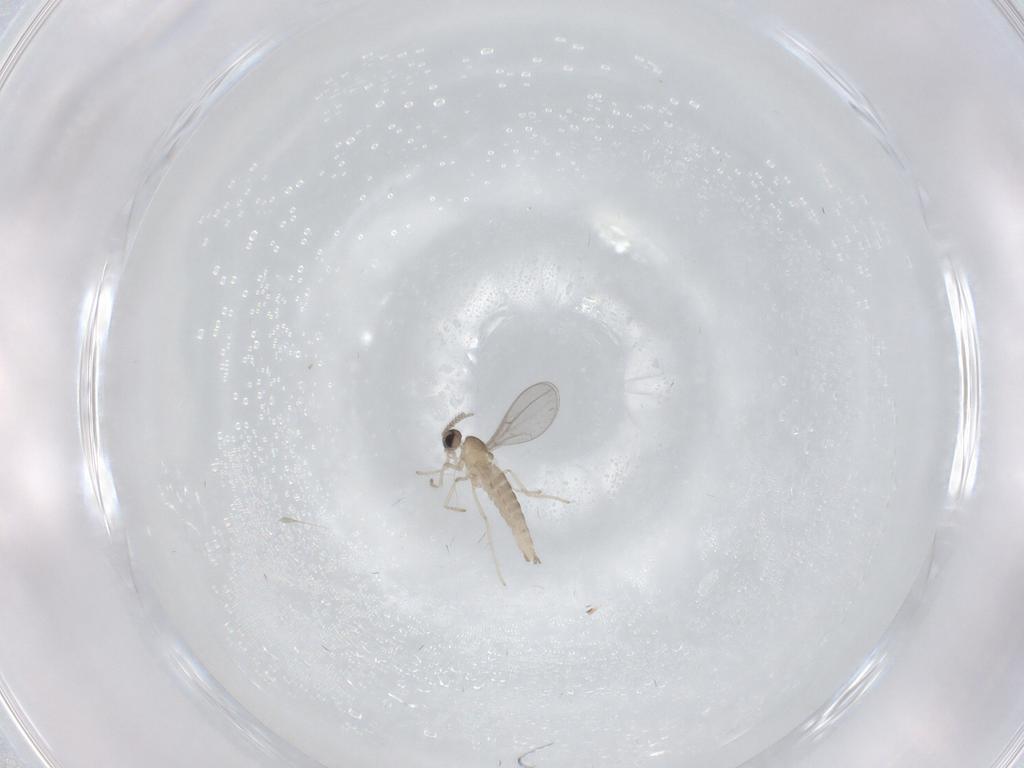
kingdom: Animalia
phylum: Arthropoda
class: Insecta
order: Diptera
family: Cecidomyiidae
